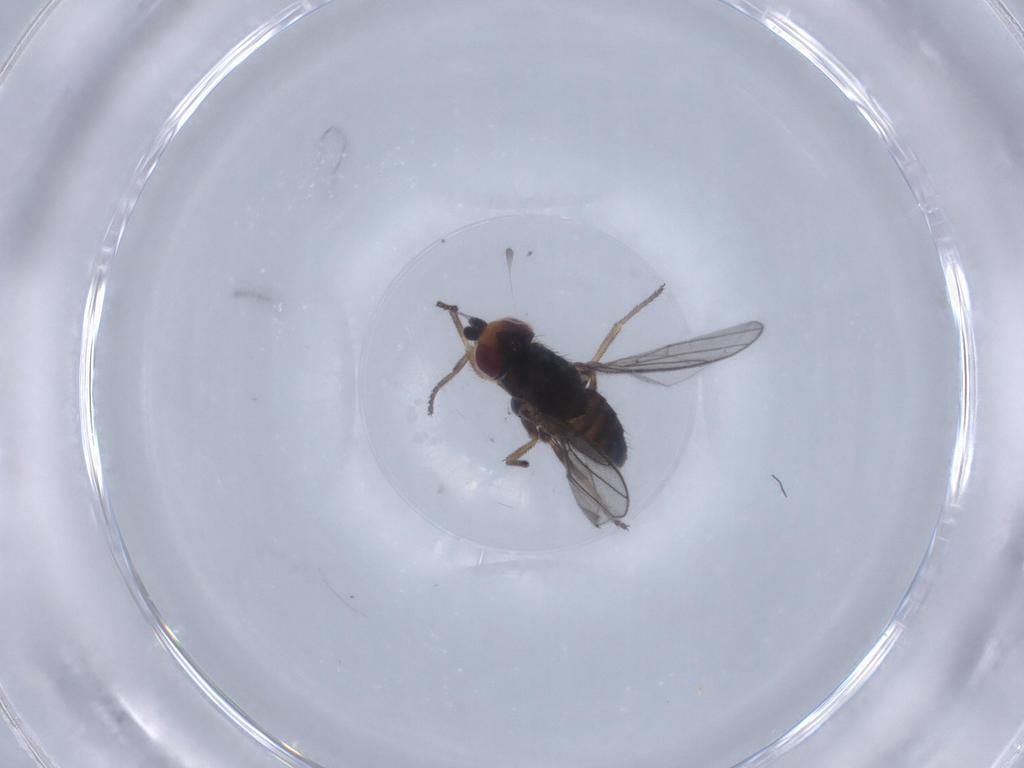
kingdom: Animalia
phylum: Arthropoda
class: Insecta
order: Diptera
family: Chloropidae
